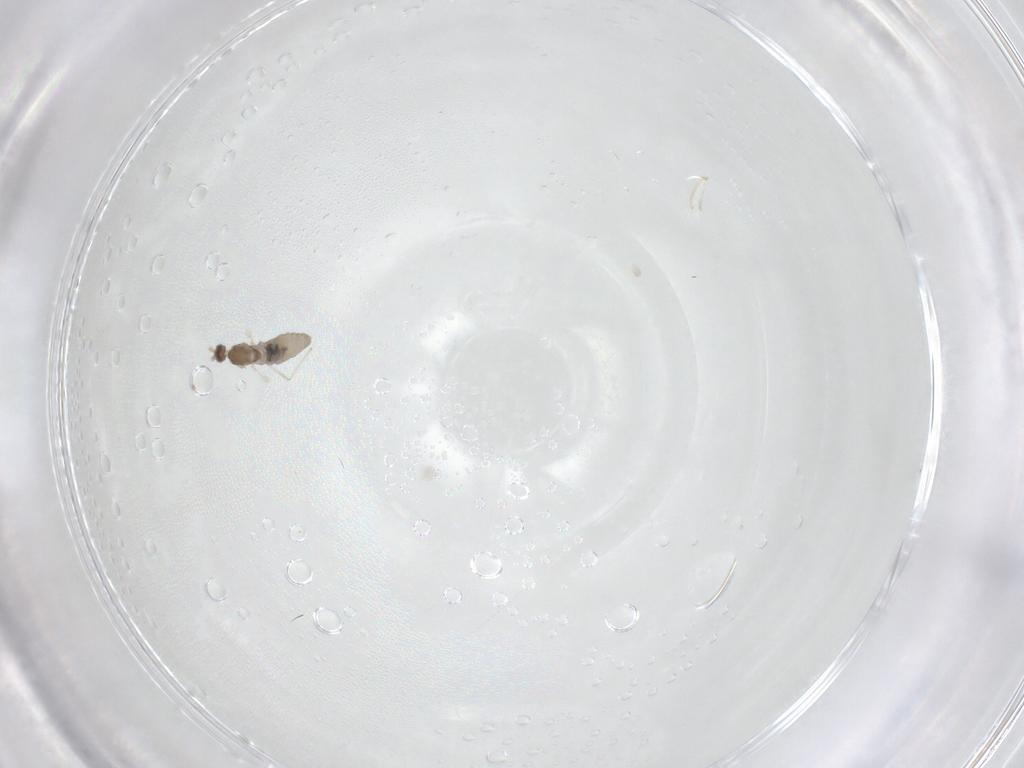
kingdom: Animalia
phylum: Arthropoda
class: Insecta
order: Diptera
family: Cecidomyiidae
